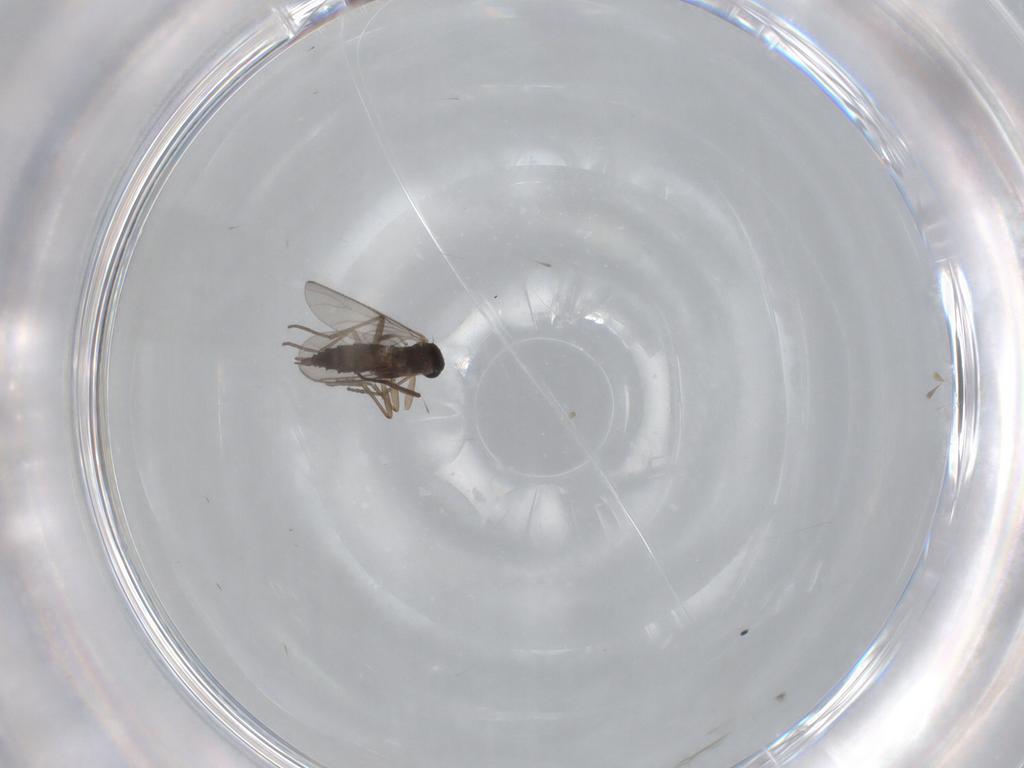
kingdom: Animalia
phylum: Arthropoda
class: Insecta
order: Diptera
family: Sciaridae
